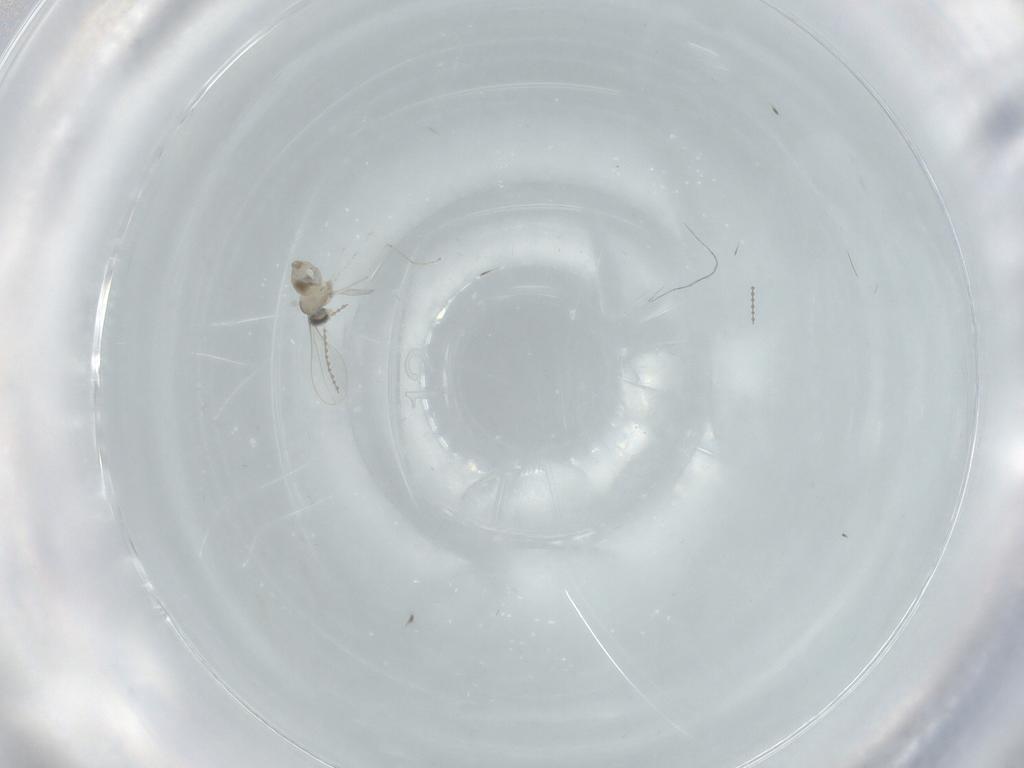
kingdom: Animalia
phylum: Arthropoda
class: Insecta
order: Diptera
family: Cecidomyiidae
